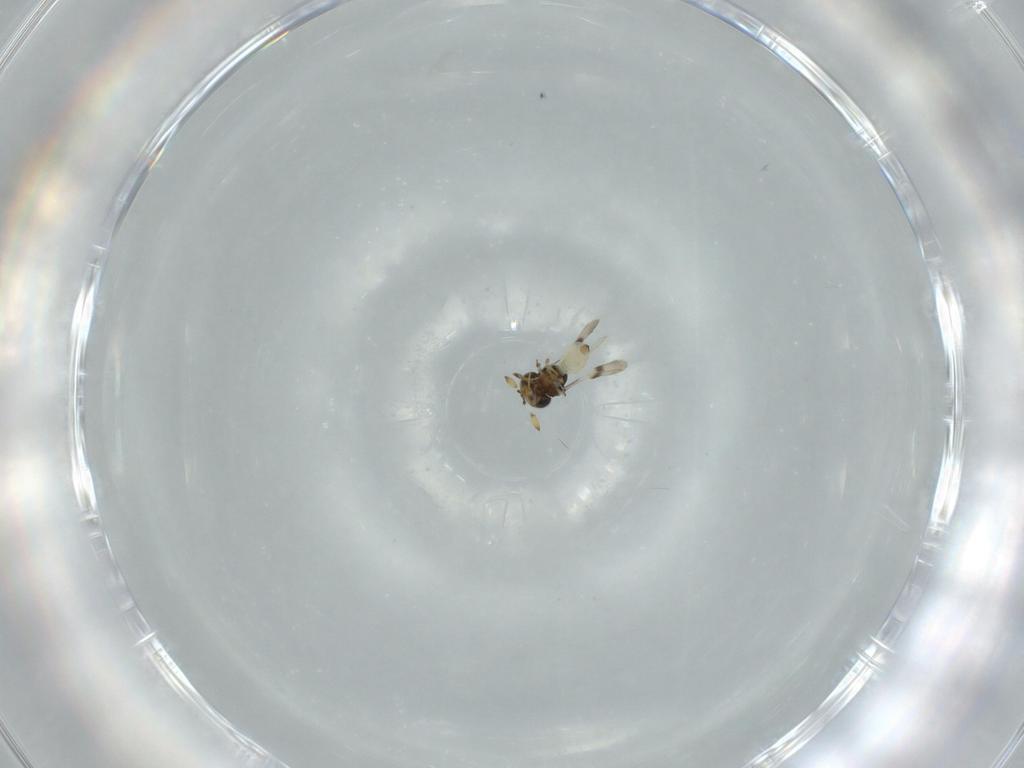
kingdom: Animalia
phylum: Arthropoda
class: Insecta
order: Hymenoptera
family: Scelionidae
